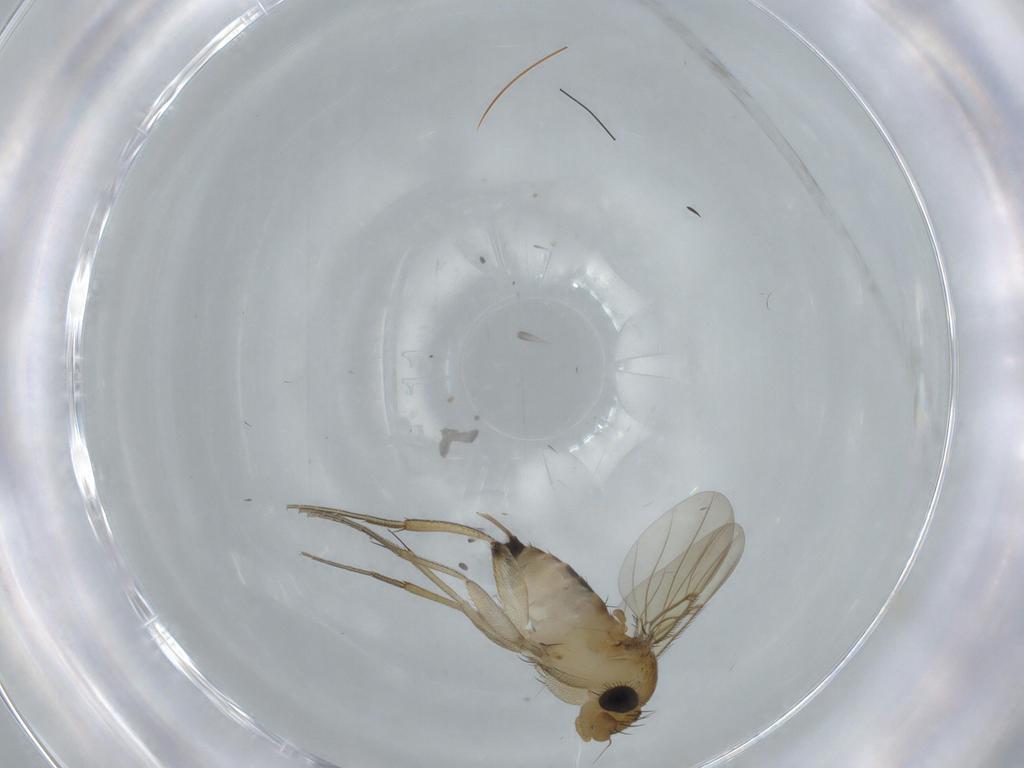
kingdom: Animalia
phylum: Arthropoda
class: Insecta
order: Diptera
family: Phoridae
